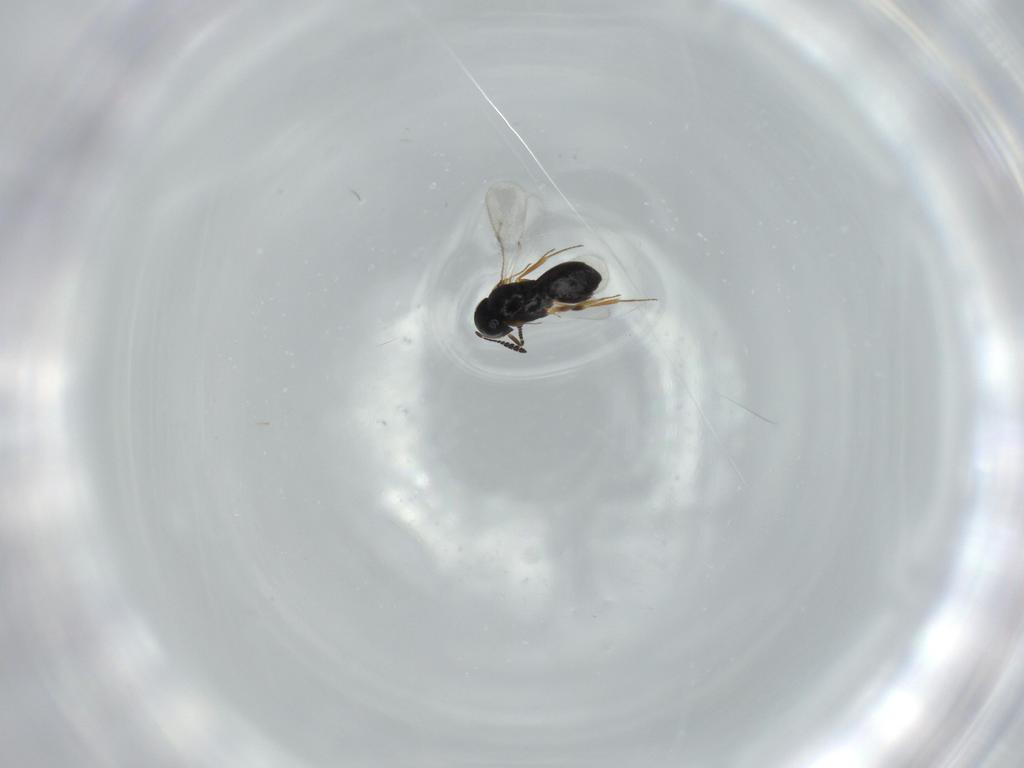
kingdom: Animalia
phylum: Arthropoda
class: Insecta
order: Hymenoptera
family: Scelionidae
